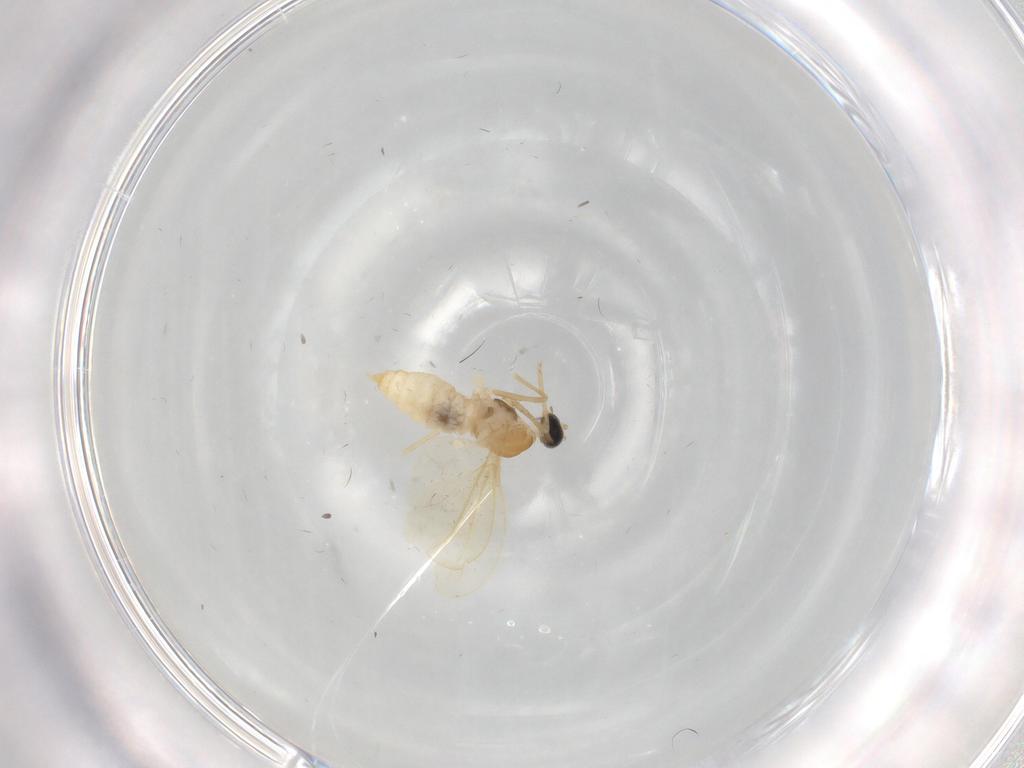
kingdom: Animalia
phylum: Arthropoda
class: Insecta
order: Diptera
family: Cecidomyiidae
